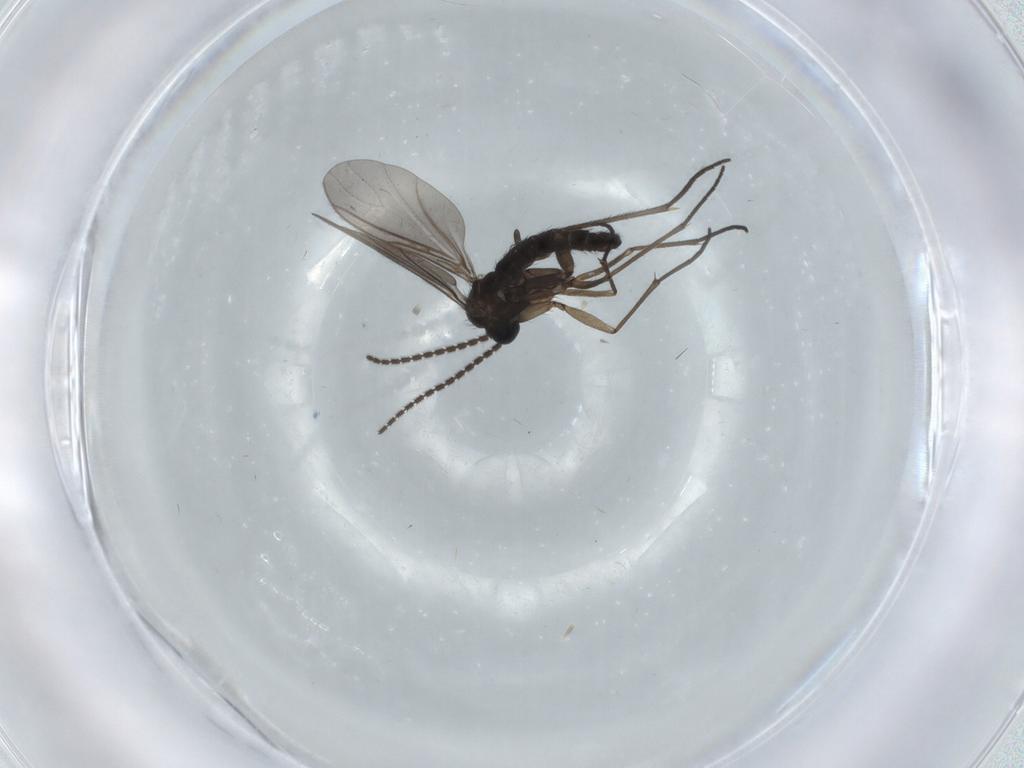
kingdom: Animalia
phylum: Arthropoda
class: Insecta
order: Diptera
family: Sciaridae
